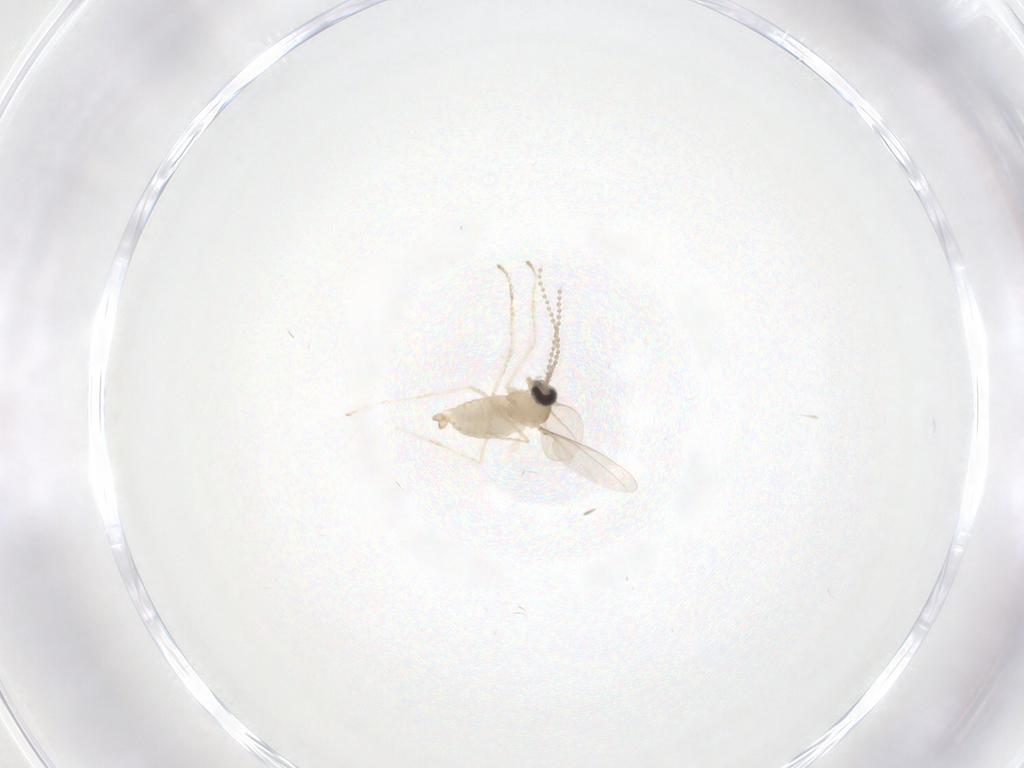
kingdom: Animalia
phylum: Arthropoda
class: Insecta
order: Diptera
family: Cecidomyiidae
